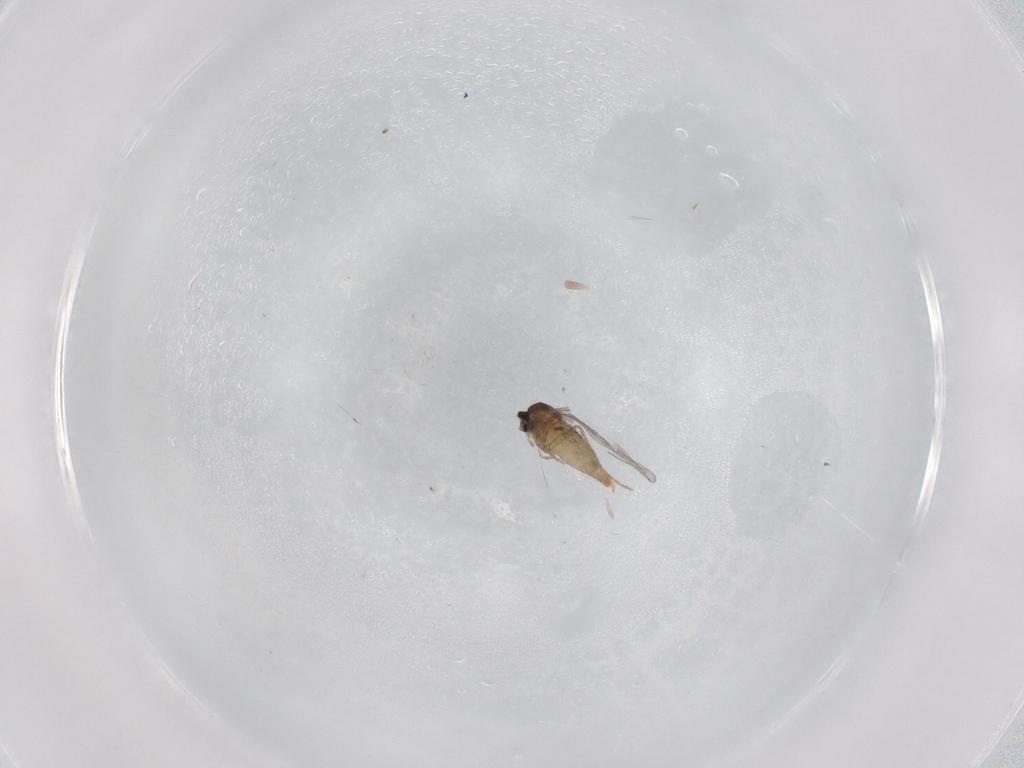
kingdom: Animalia
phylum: Arthropoda
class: Insecta
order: Diptera
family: Cecidomyiidae
